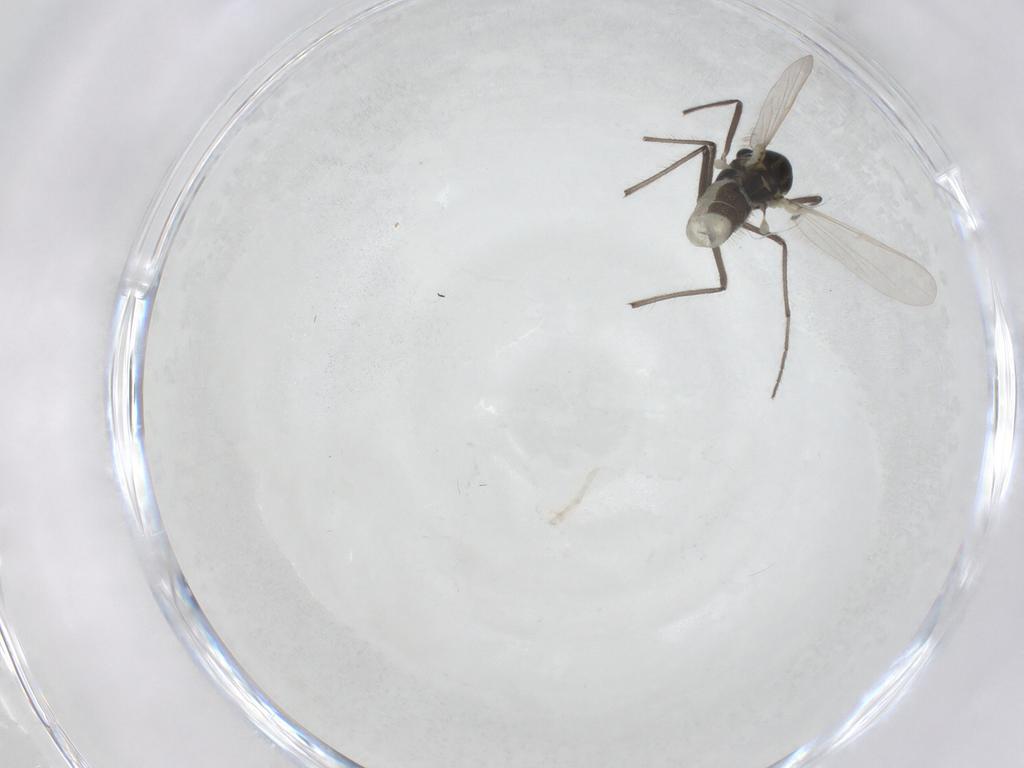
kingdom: Animalia
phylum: Arthropoda
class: Insecta
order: Diptera
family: Chironomidae
